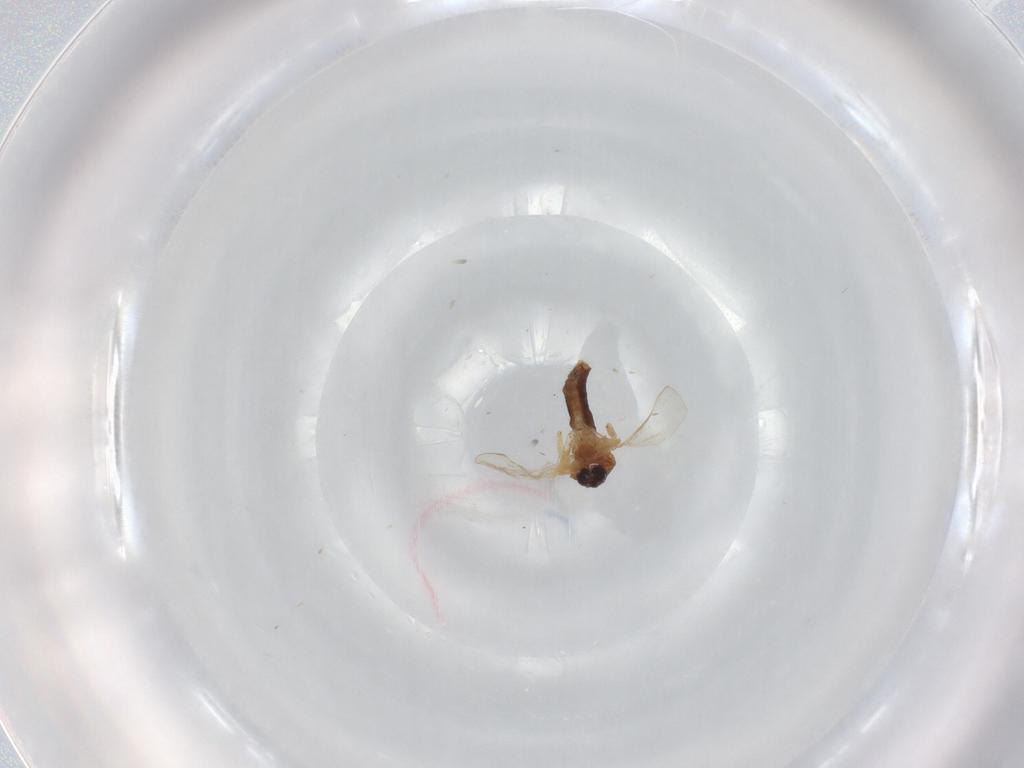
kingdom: Animalia
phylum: Arthropoda
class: Insecta
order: Diptera
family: Ceratopogonidae
